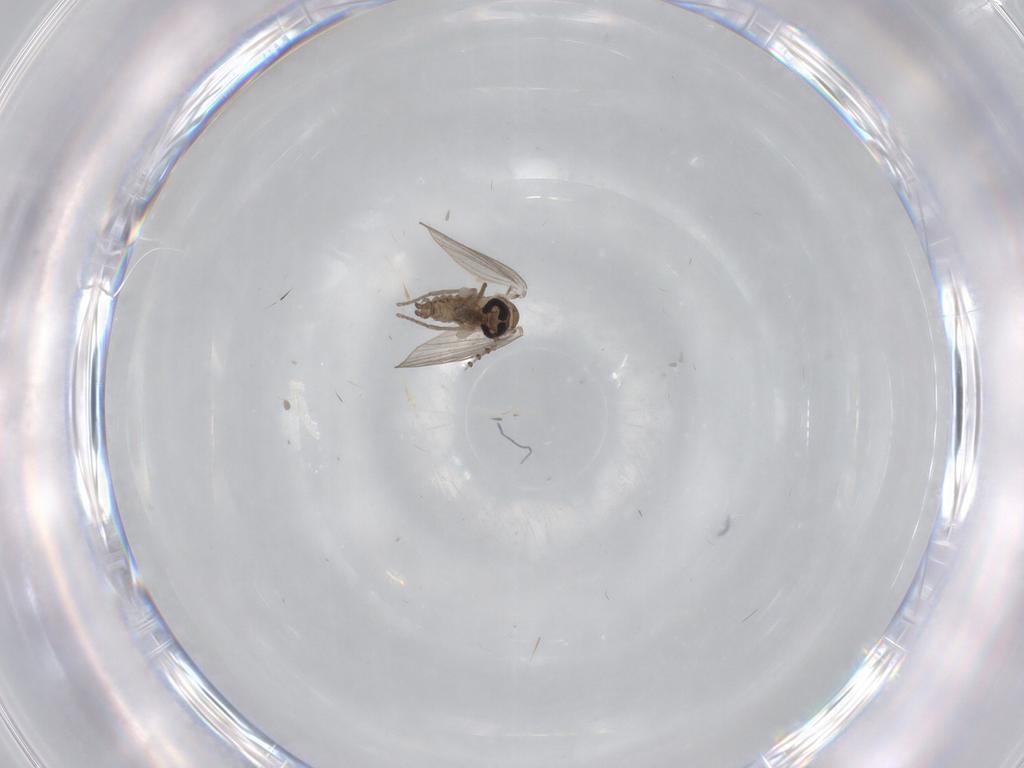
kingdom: Animalia
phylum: Arthropoda
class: Insecta
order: Diptera
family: Psychodidae
